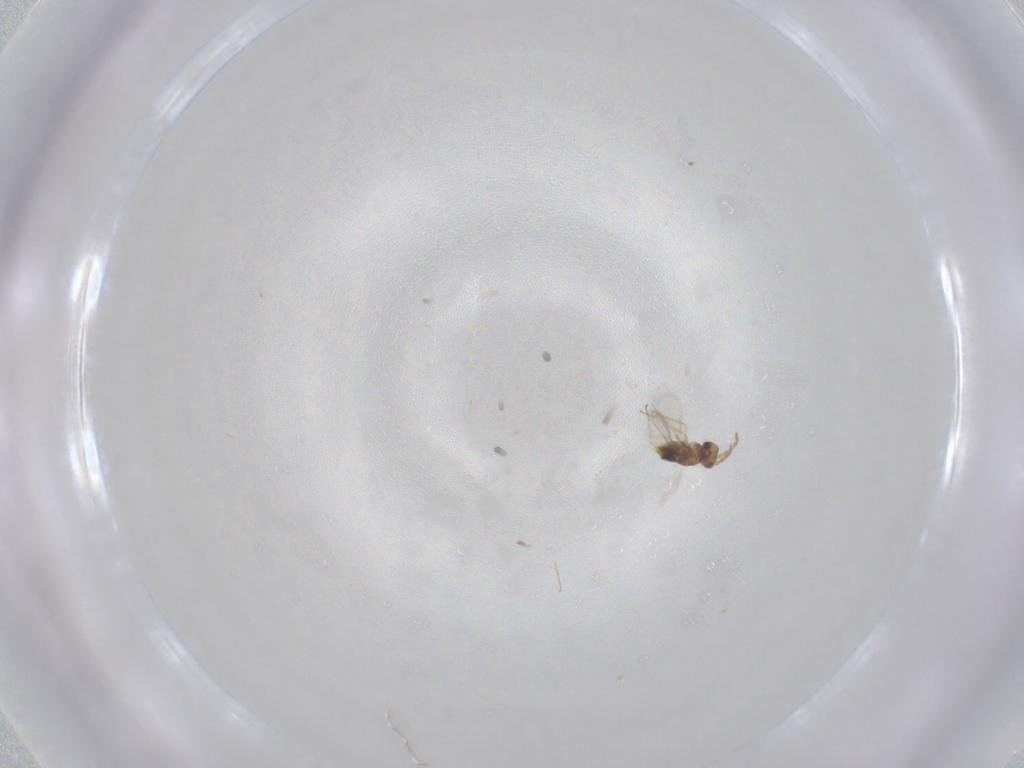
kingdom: Animalia
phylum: Arthropoda
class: Insecta
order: Hymenoptera
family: Aphelinidae
